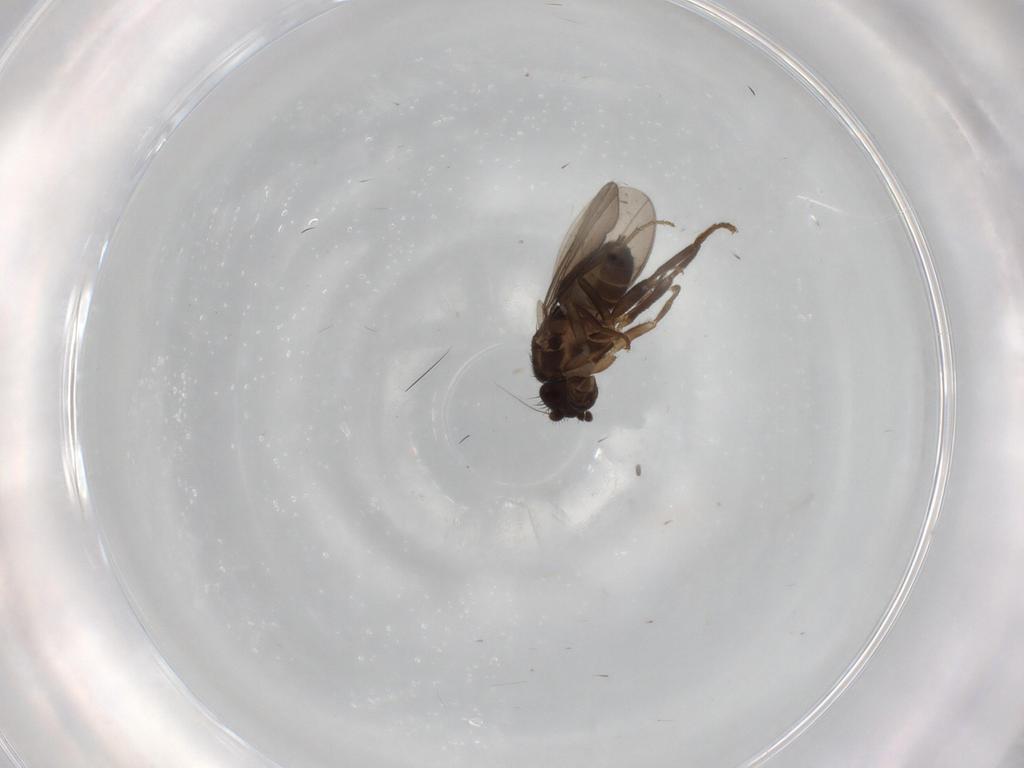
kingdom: Animalia
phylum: Arthropoda
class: Insecta
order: Diptera
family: Sphaeroceridae
